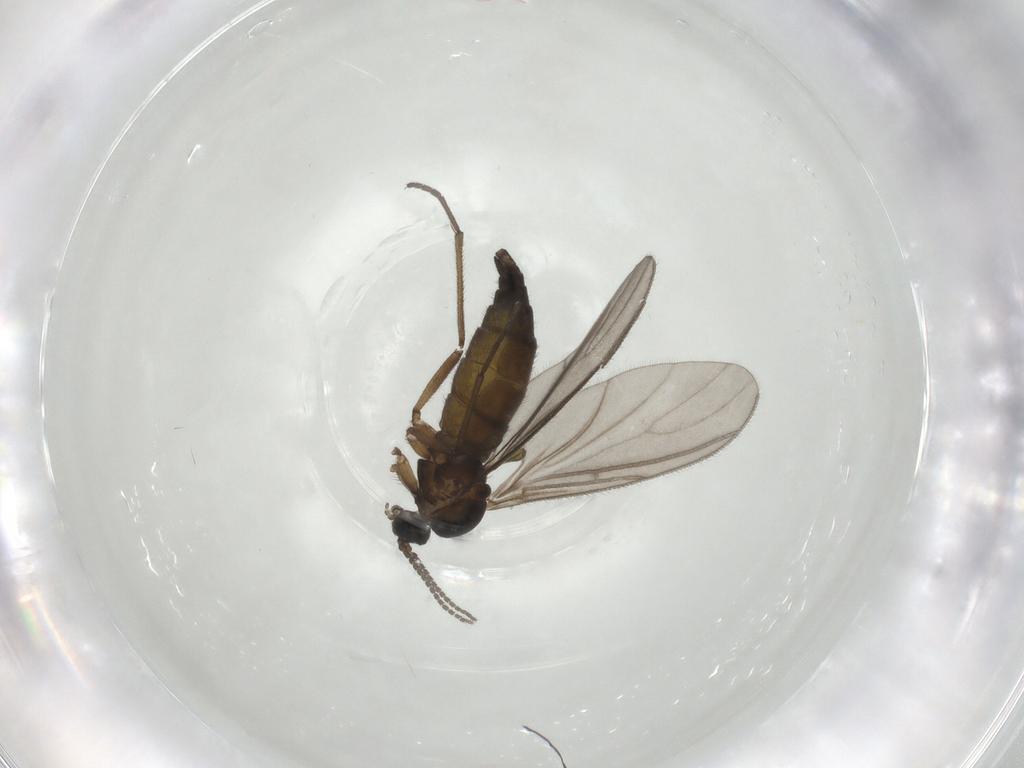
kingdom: Animalia
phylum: Arthropoda
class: Insecta
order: Diptera
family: Sciaridae
